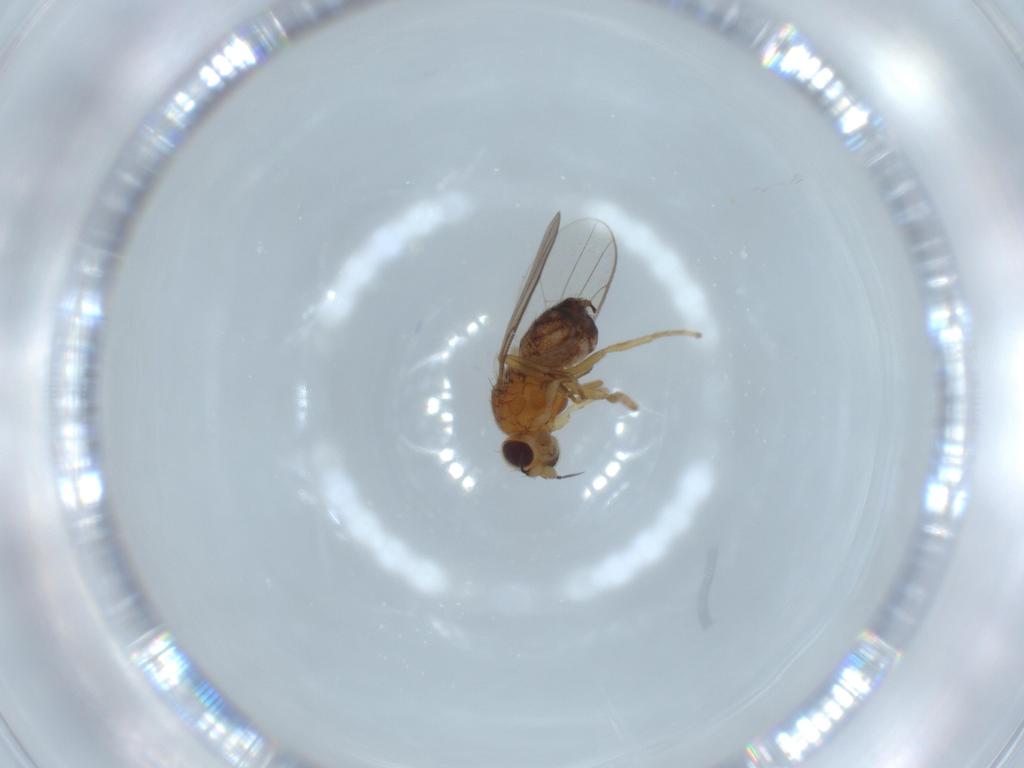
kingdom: Animalia
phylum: Arthropoda
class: Insecta
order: Diptera
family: Chloropidae
